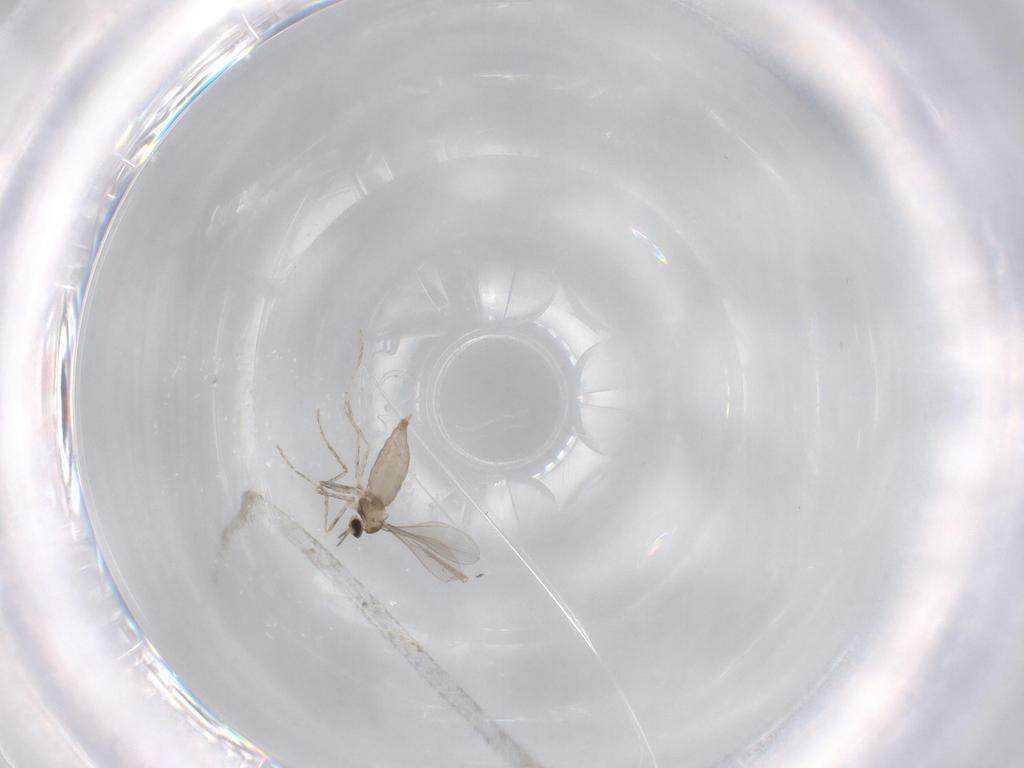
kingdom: Animalia
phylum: Arthropoda
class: Insecta
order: Diptera
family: Cecidomyiidae
